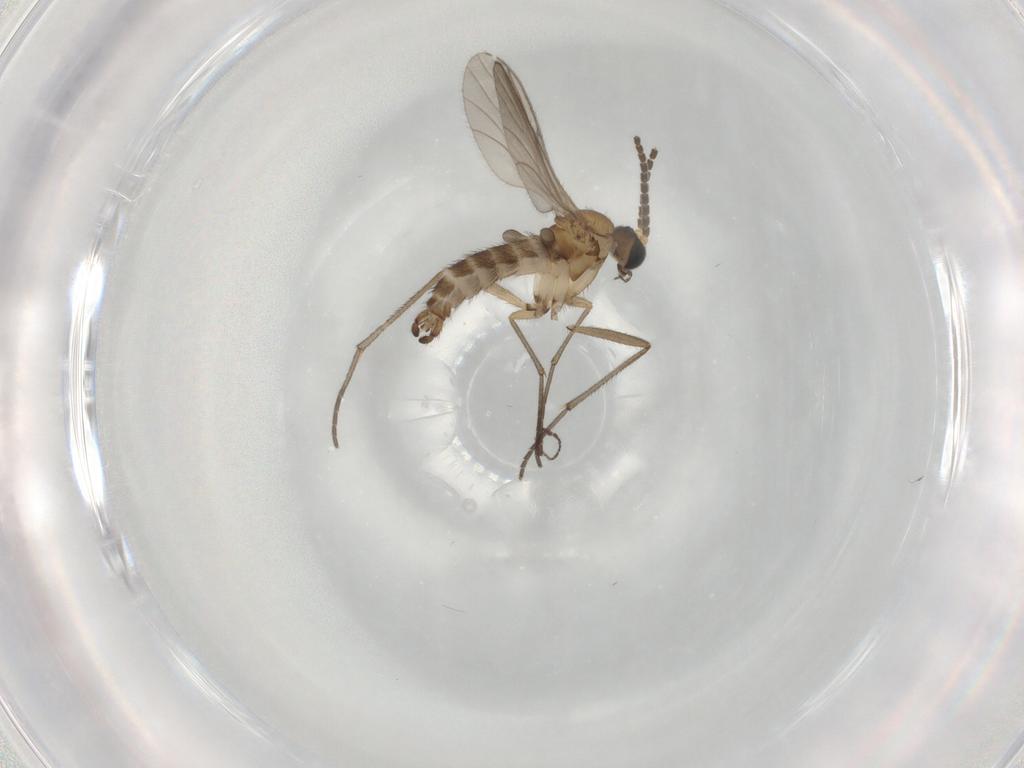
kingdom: Animalia
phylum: Arthropoda
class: Insecta
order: Diptera
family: Sciaridae
